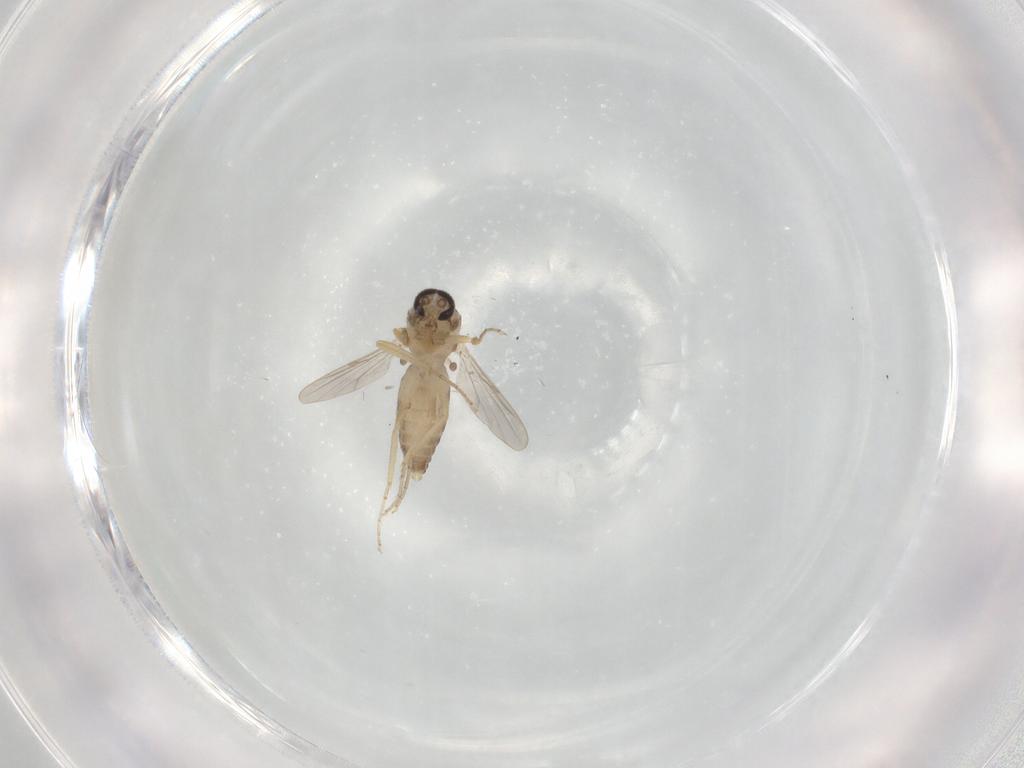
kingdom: Animalia
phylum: Arthropoda
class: Insecta
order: Diptera
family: Ceratopogonidae
